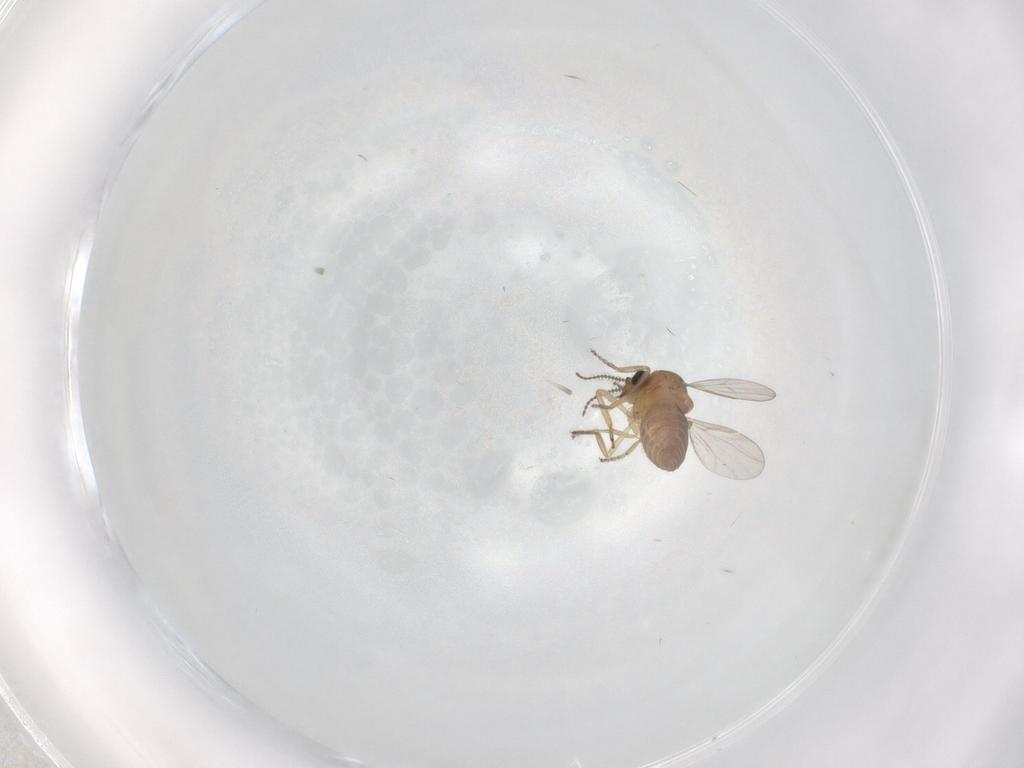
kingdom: Animalia
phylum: Arthropoda
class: Insecta
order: Diptera
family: Ceratopogonidae
